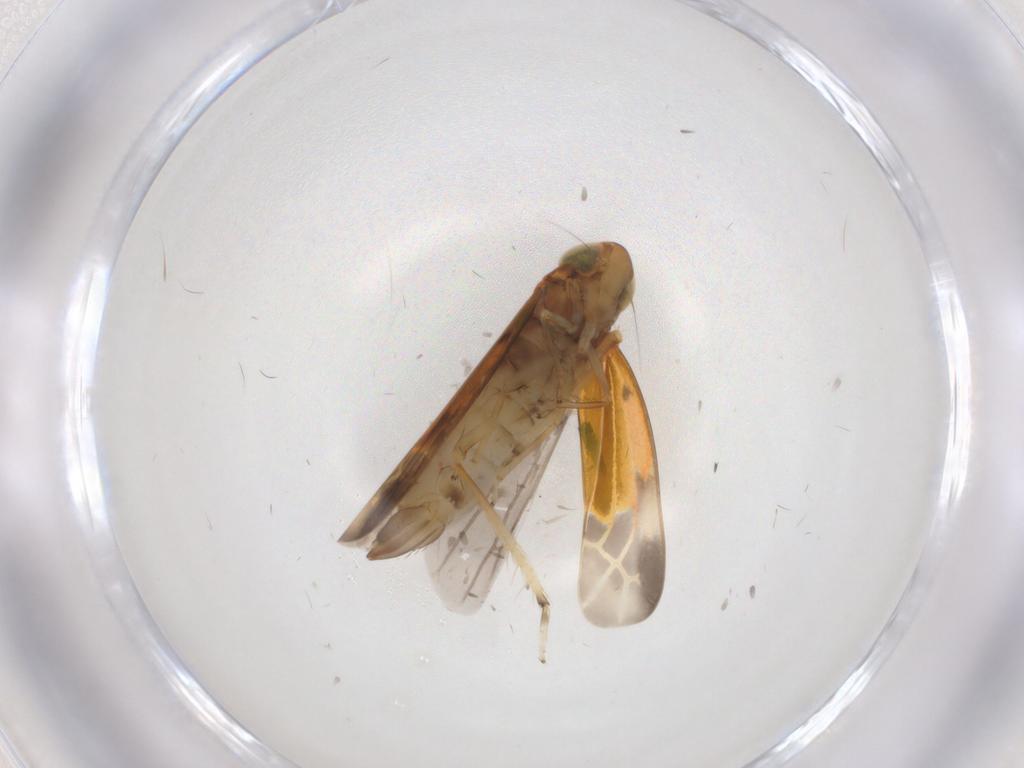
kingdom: Animalia
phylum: Arthropoda
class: Insecta
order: Hemiptera
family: Cicadellidae
